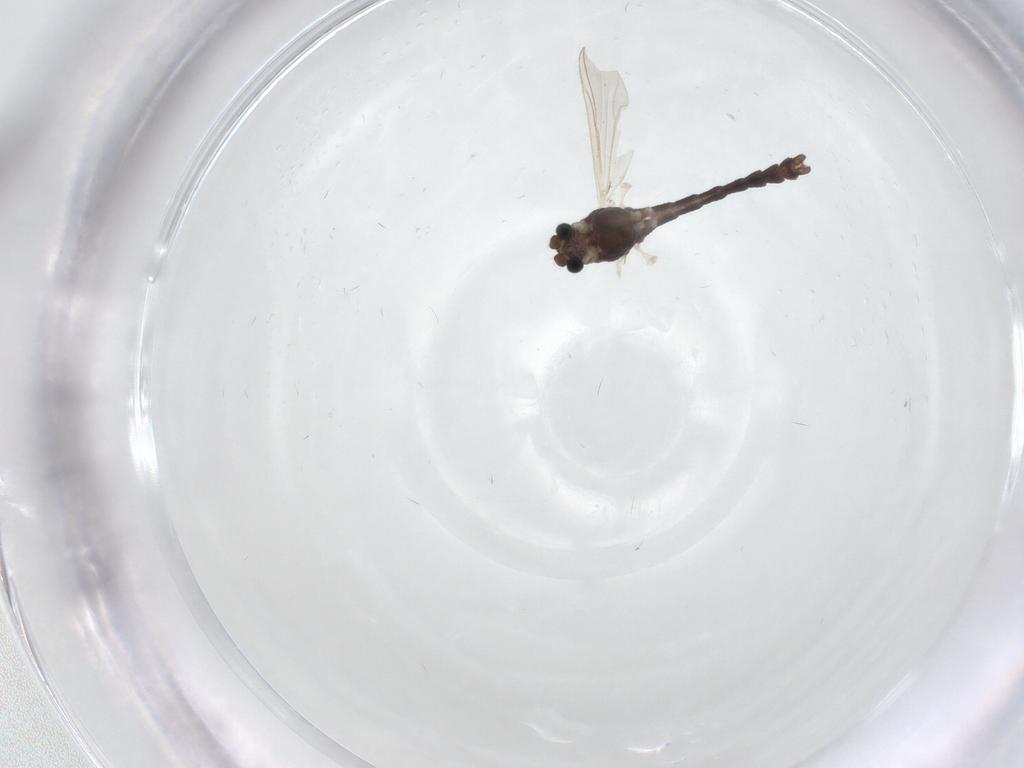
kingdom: Animalia
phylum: Arthropoda
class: Insecta
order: Diptera
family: Chironomidae
